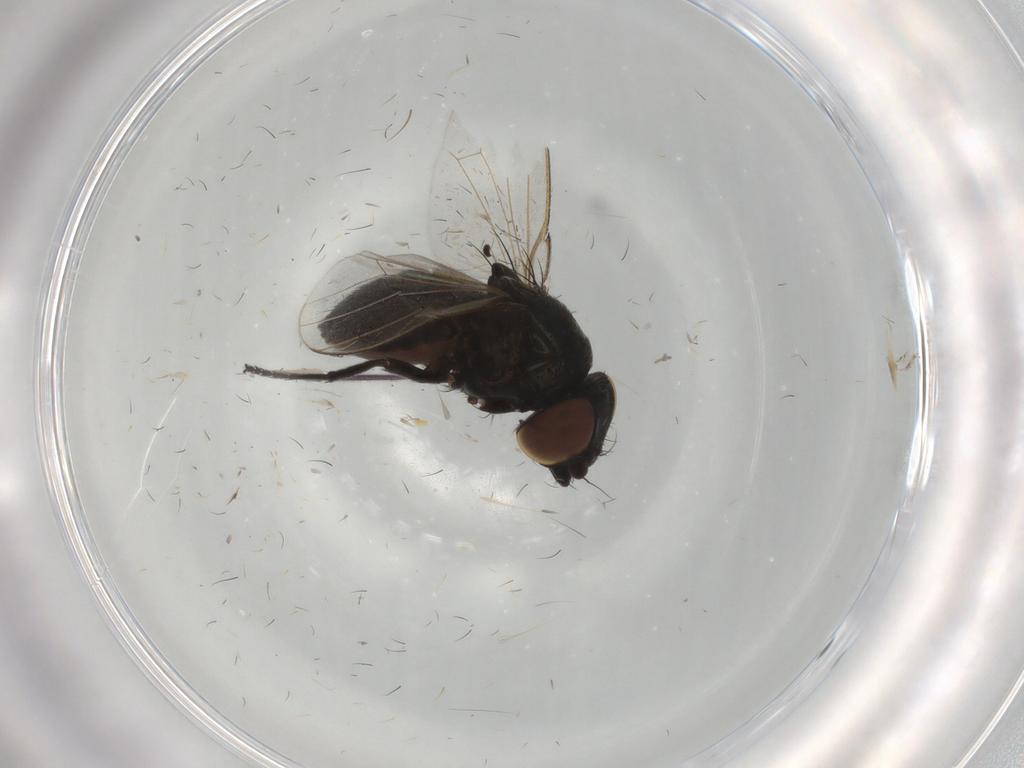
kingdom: Animalia
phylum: Arthropoda
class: Insecta
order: Diptera
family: Milichiidae
